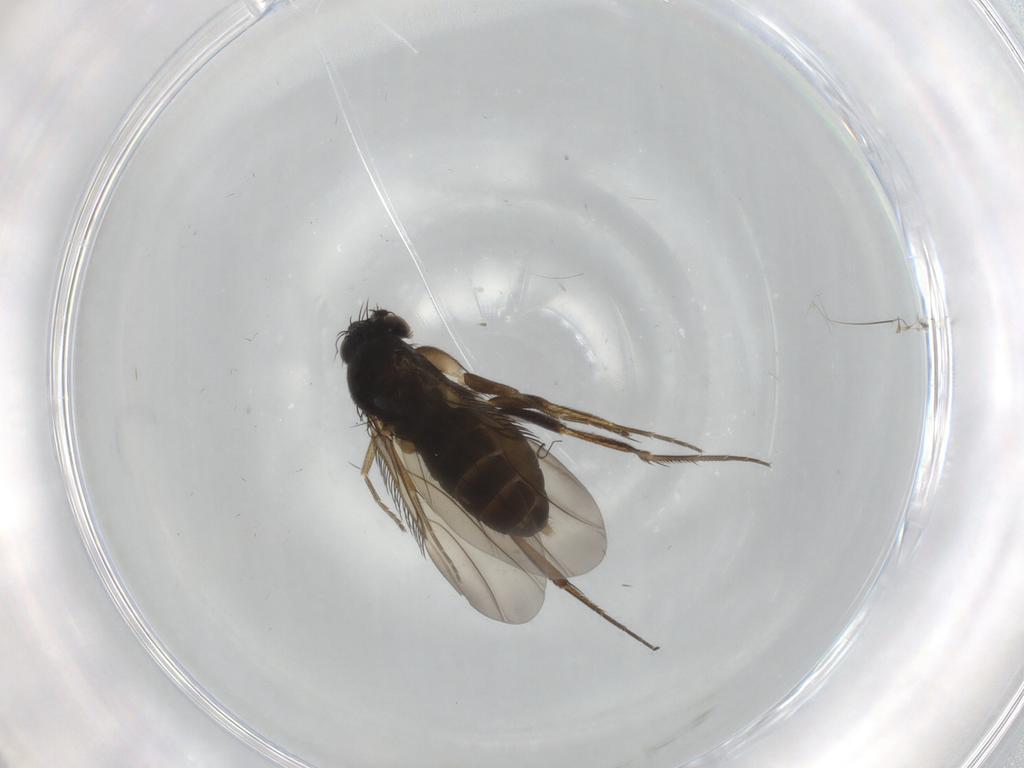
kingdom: Animalia
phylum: Arthropoda
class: Insecta
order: Diptera
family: Phoridae
